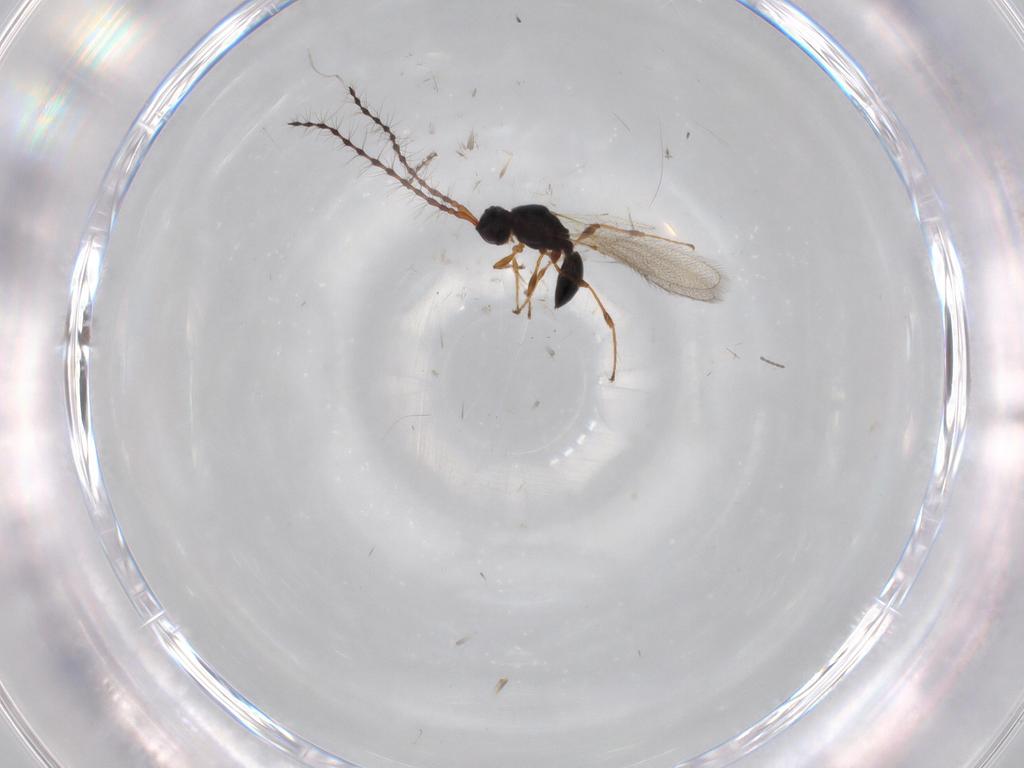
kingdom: Animalia
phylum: Arthropoda
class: Insecta
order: Hymenoptera
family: Diapriidae
